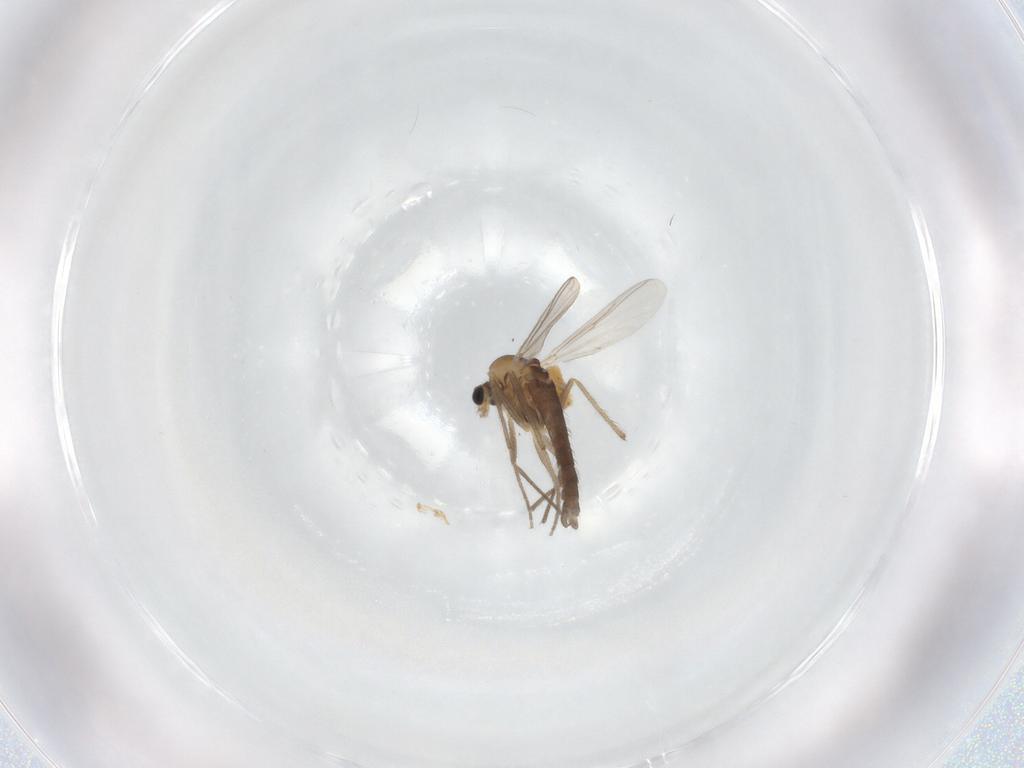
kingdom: Animalia
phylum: Arthropoda
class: Insecta
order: Diptera
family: Chironomidae
